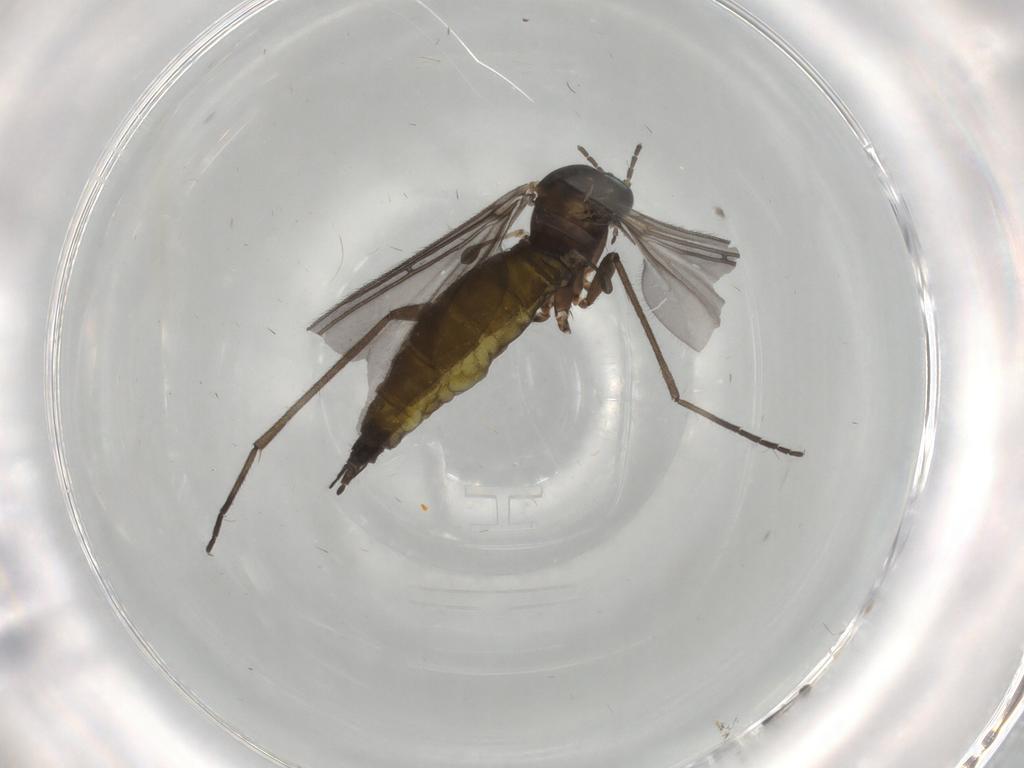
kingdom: Animalia
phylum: Arthropoda
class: Insecta
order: Diptera
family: Sciaridae
